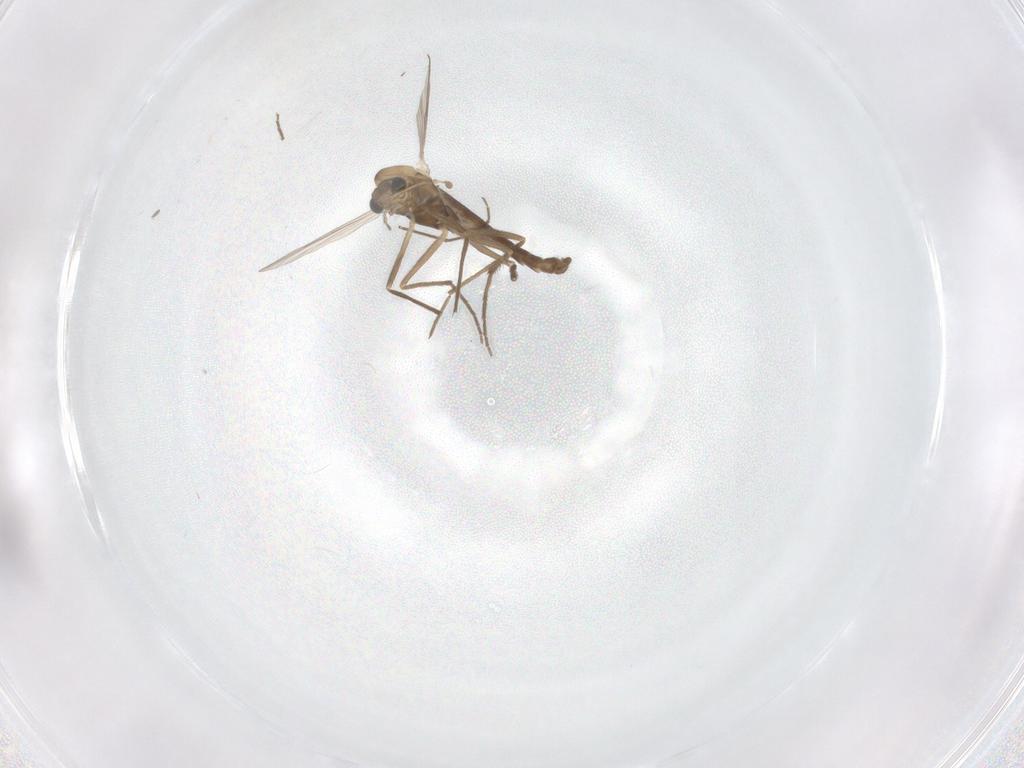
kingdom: Animalia
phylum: Arthropoda
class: Insecta
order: Diptera
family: Chironomidae
